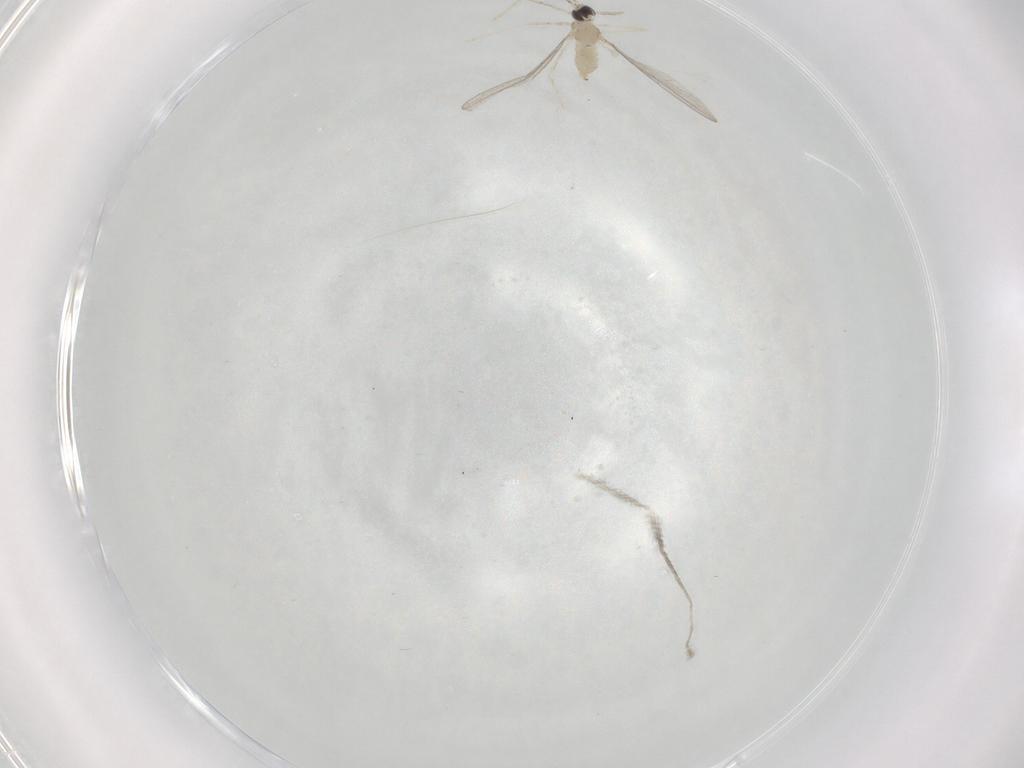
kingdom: Animalia
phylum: Arthropoda
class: Insecta
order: Diptera
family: Cecidomyiidae
